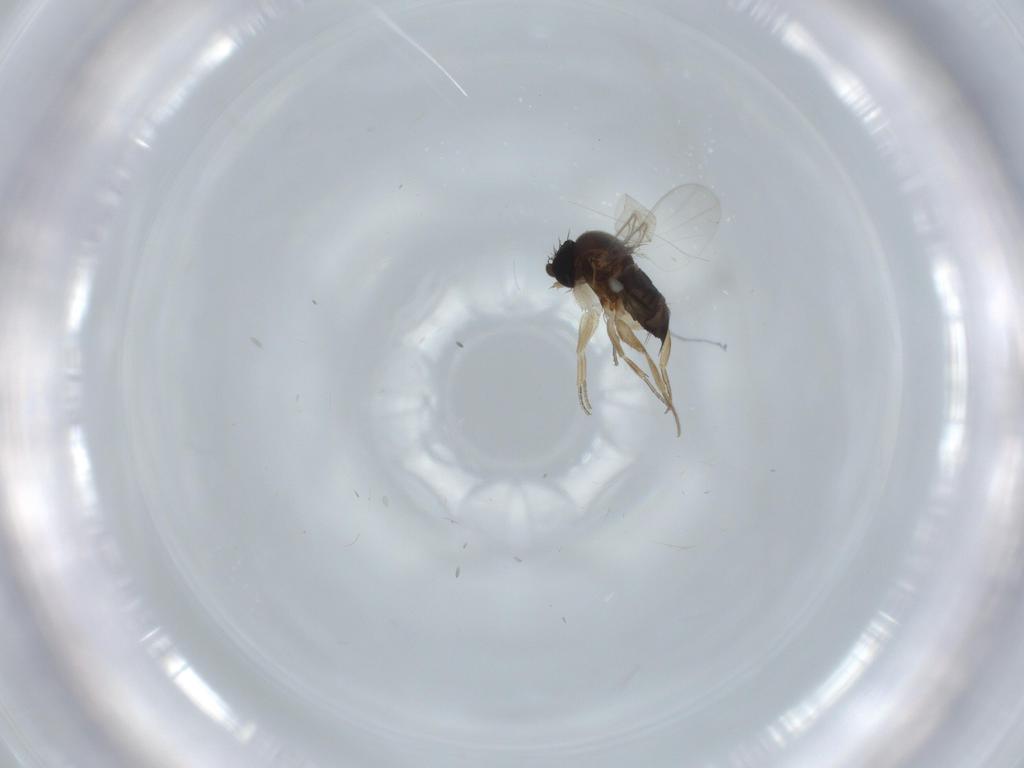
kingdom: Animalia
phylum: Arthropoda
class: Insecta
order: Diptera
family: Phoridae
